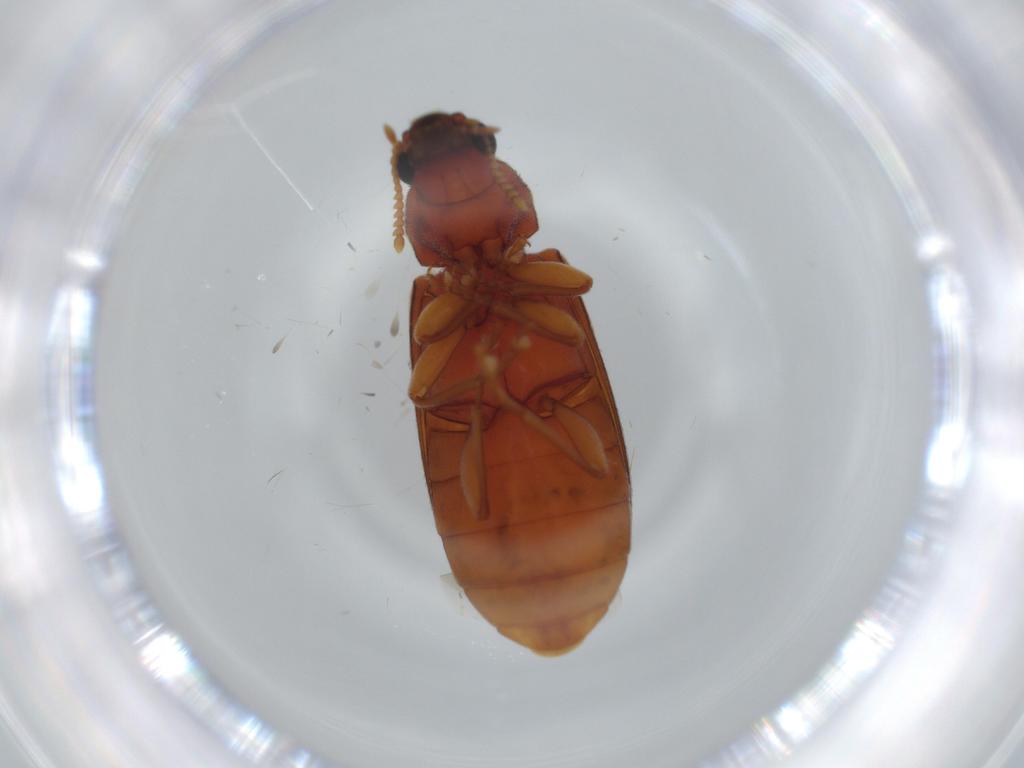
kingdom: Animalia
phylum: Arthropoda
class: Insecta
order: Coleoptera
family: Mycteridae
